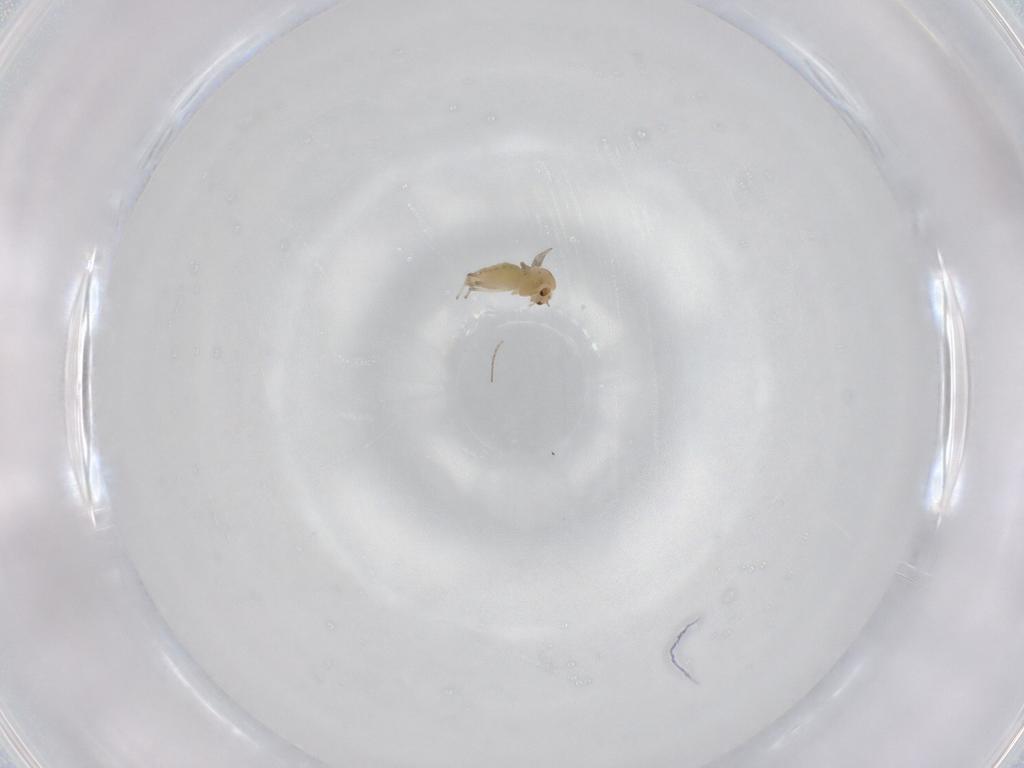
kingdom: Animalia
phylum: Arthropoda
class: Insecta
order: Diptera
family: Chironomidae
